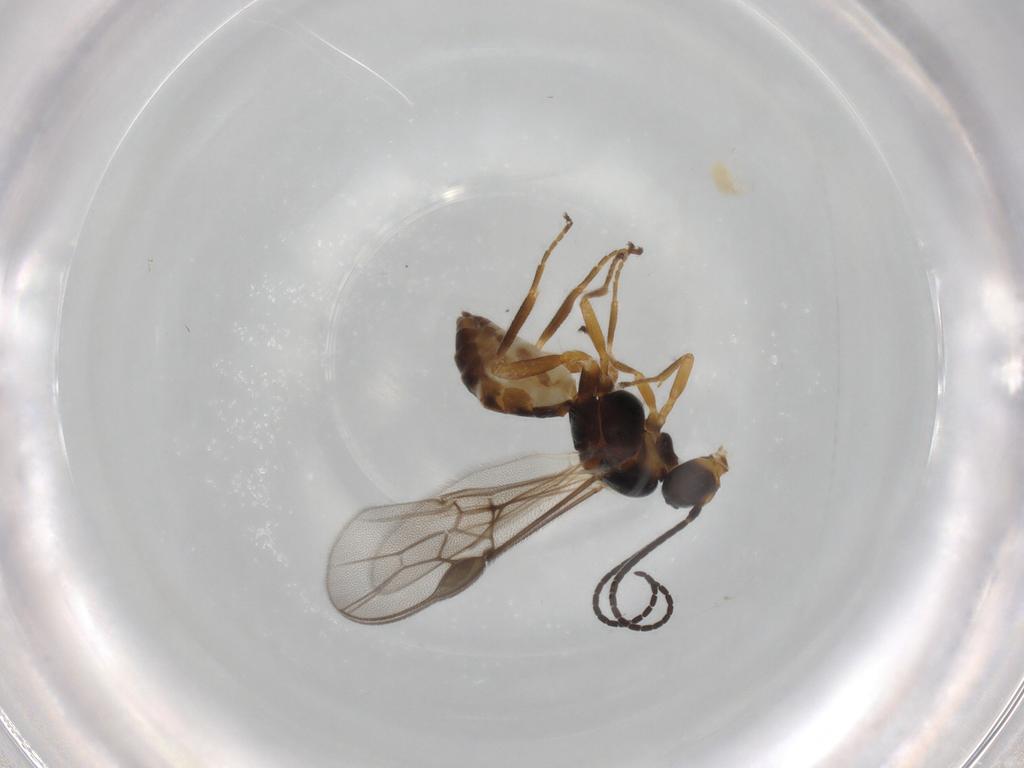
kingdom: Animalia
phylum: Arthropoda
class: Insecta
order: Hymenoptera
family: Braconidae
